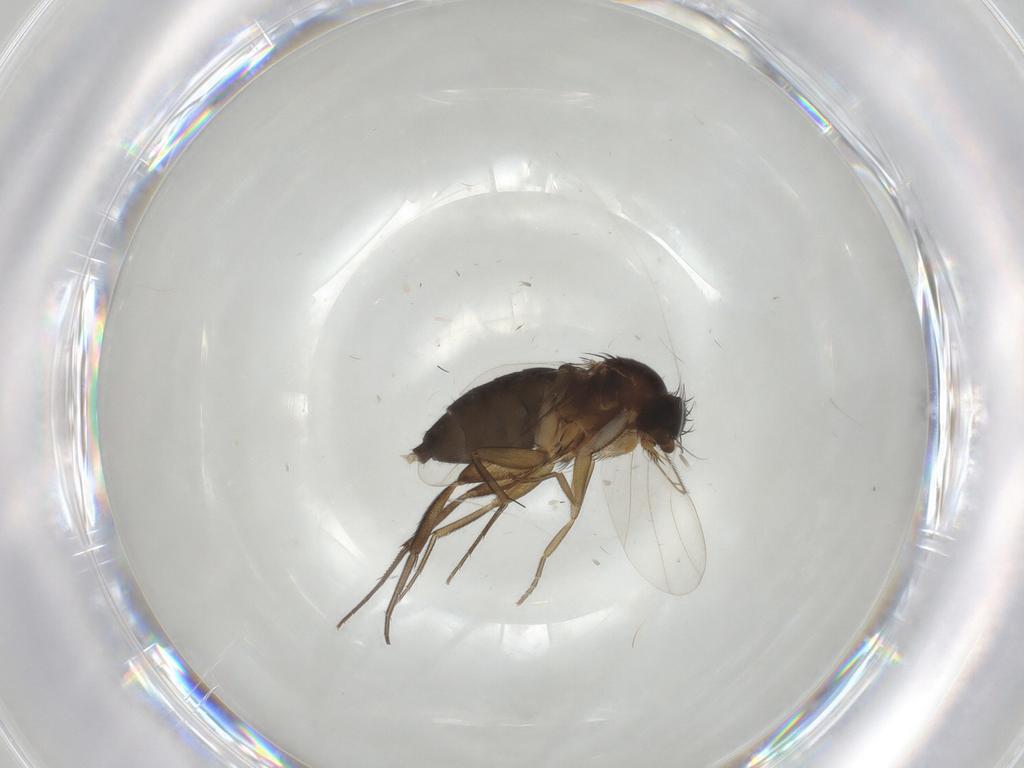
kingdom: Animalia
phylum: Arthropoda
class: Insecta
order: Diptera
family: Phoridae
